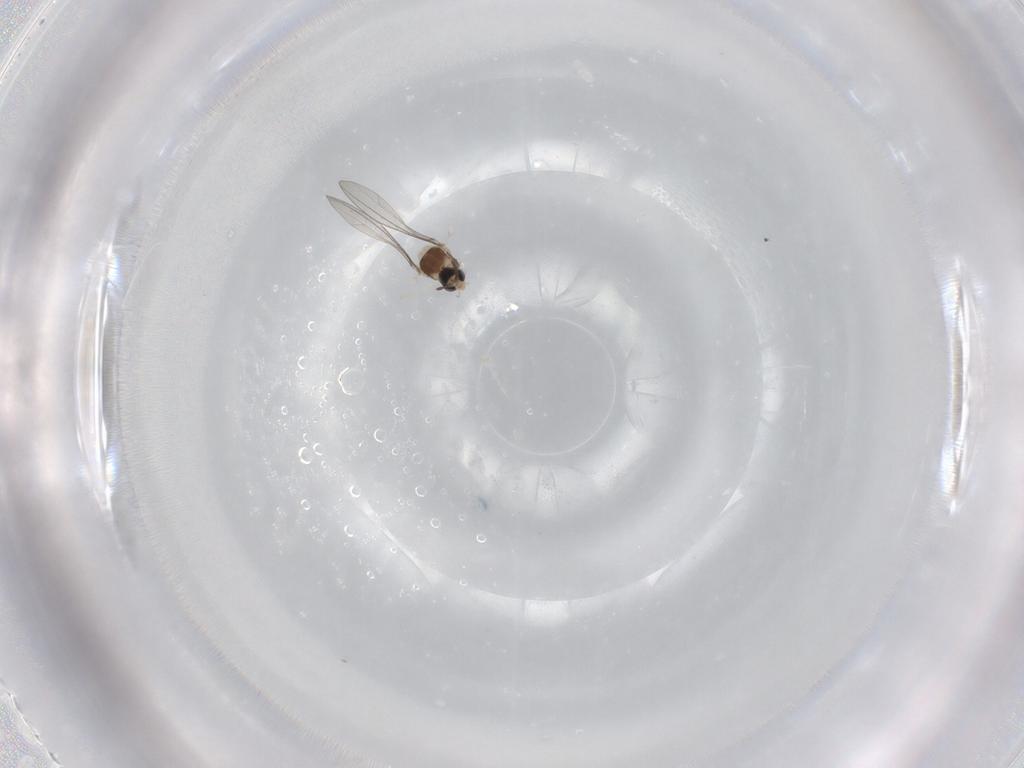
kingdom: Animalia
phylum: Arthropoda
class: Insecta
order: Diptera
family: Cecidomyiidae
